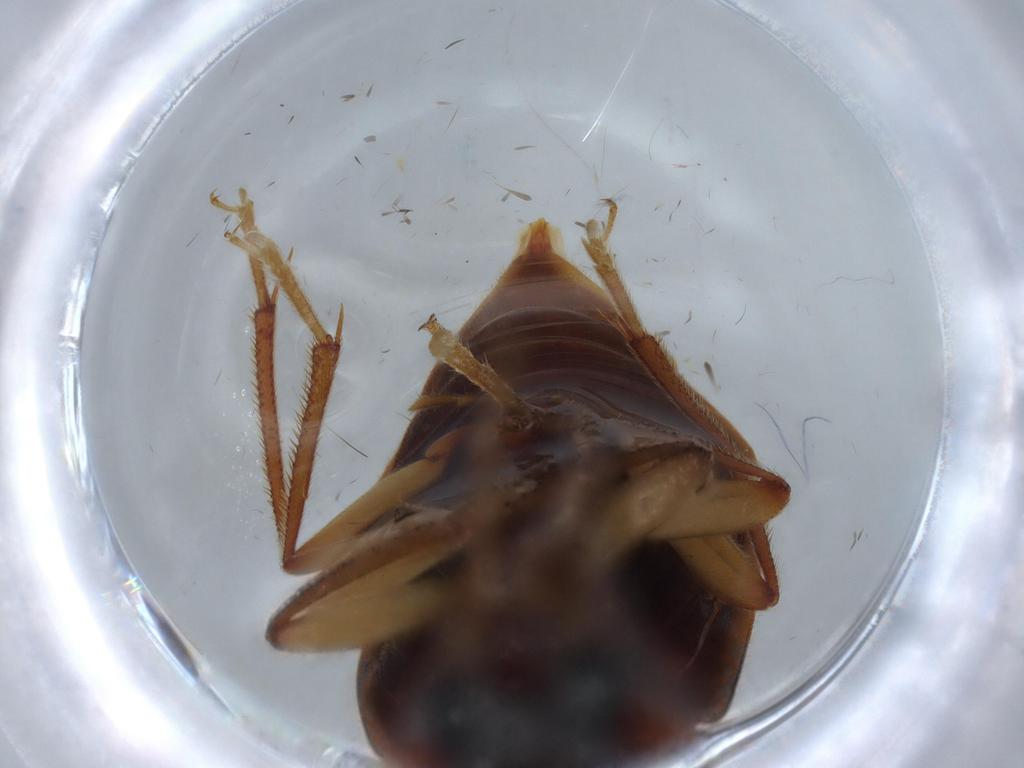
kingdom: Animalia
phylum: Arthropoda
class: Insecta
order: Coleoptera
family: Ptilodactylidae
